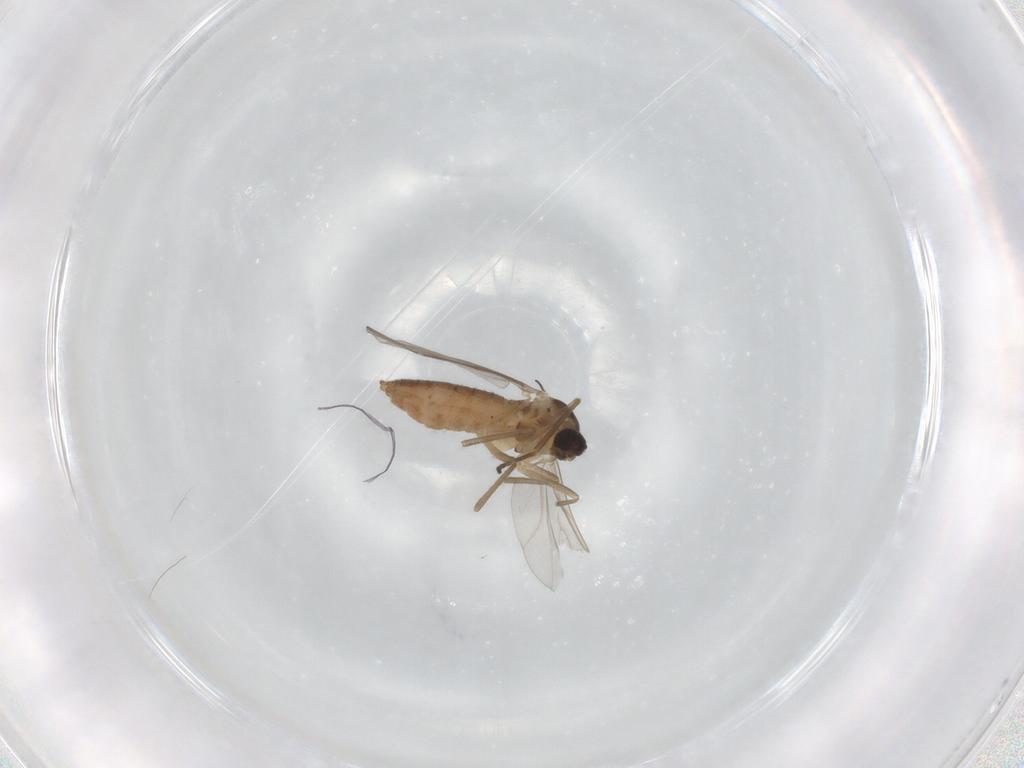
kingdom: Animalia
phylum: Arthropoda
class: Insecta
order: Diptera
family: Cecidomyiidae
